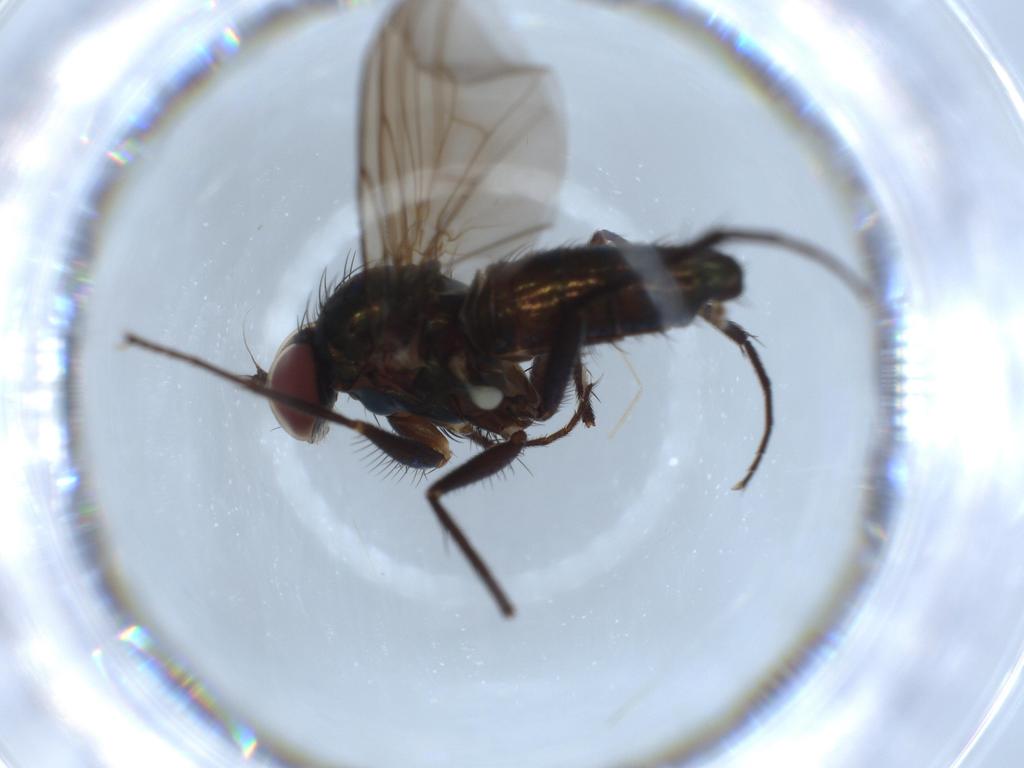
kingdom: Animalia
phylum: Arthropoda
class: Insecta
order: Diptera
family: Dolichopodidae
